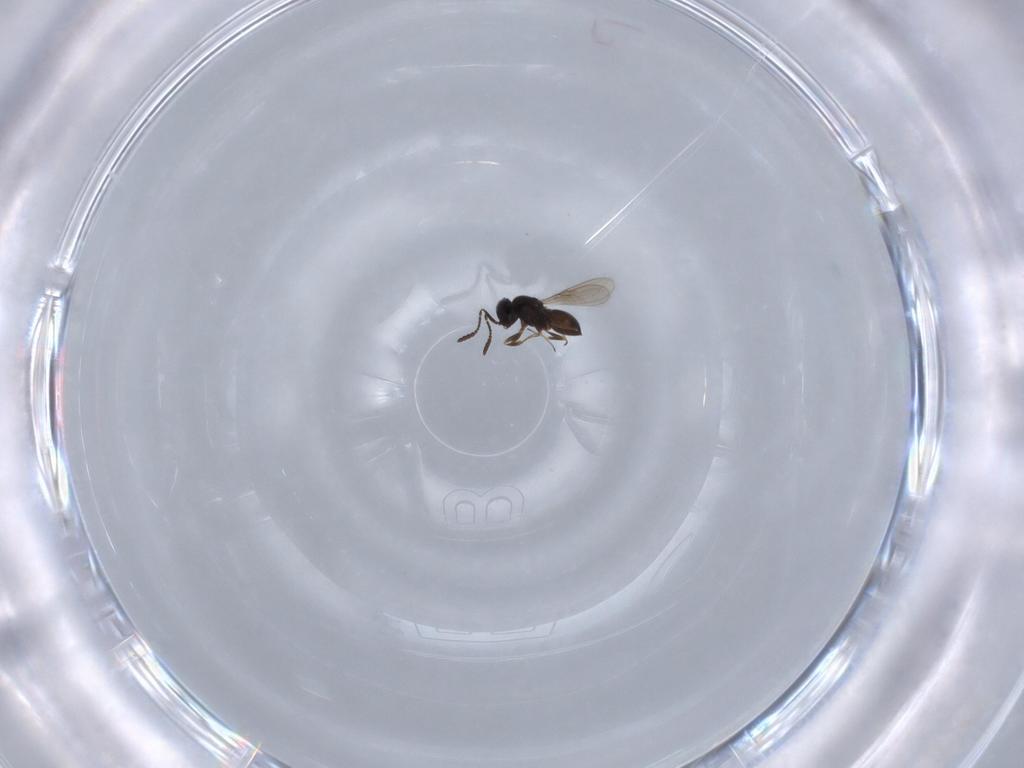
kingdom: Animalia
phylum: Arthropoda
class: Insecta
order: Hymenoptera
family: Scelionidae
